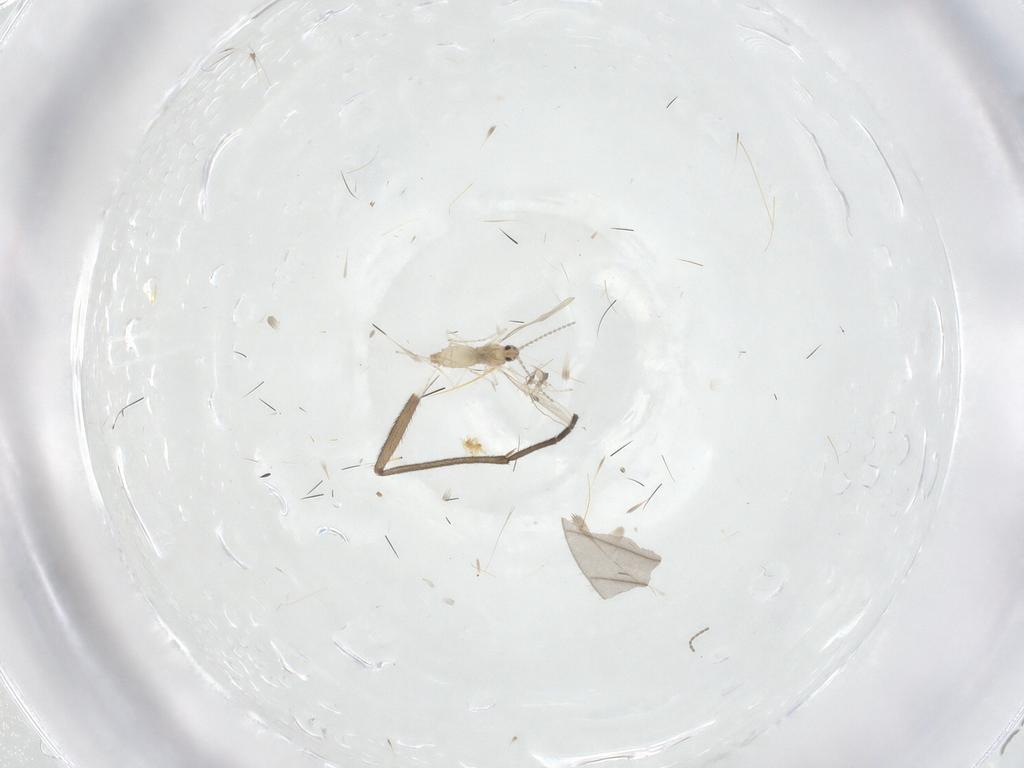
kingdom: Animalia
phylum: Arthropoda
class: Insecta
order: Diptera
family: Sciaridae
